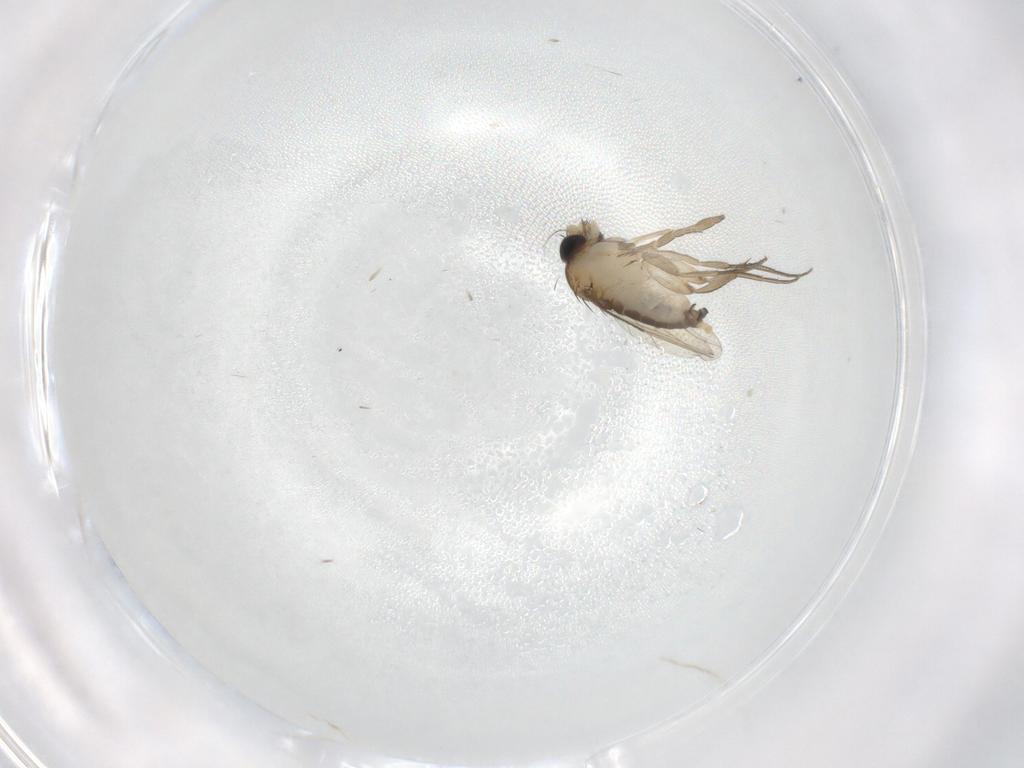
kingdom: Animalia
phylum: Arthropoda
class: Insecta
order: Diptera
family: Phoridae
